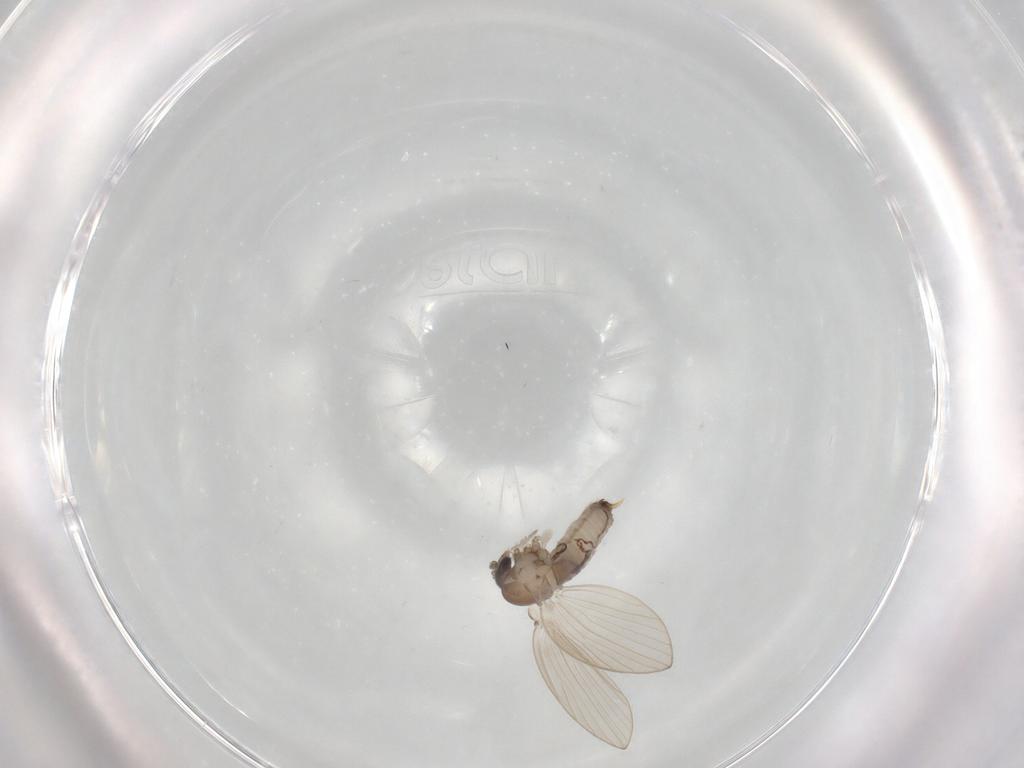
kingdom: Animalia
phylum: Arthropoda
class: Insecta
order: Diptera
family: Psychodidae
